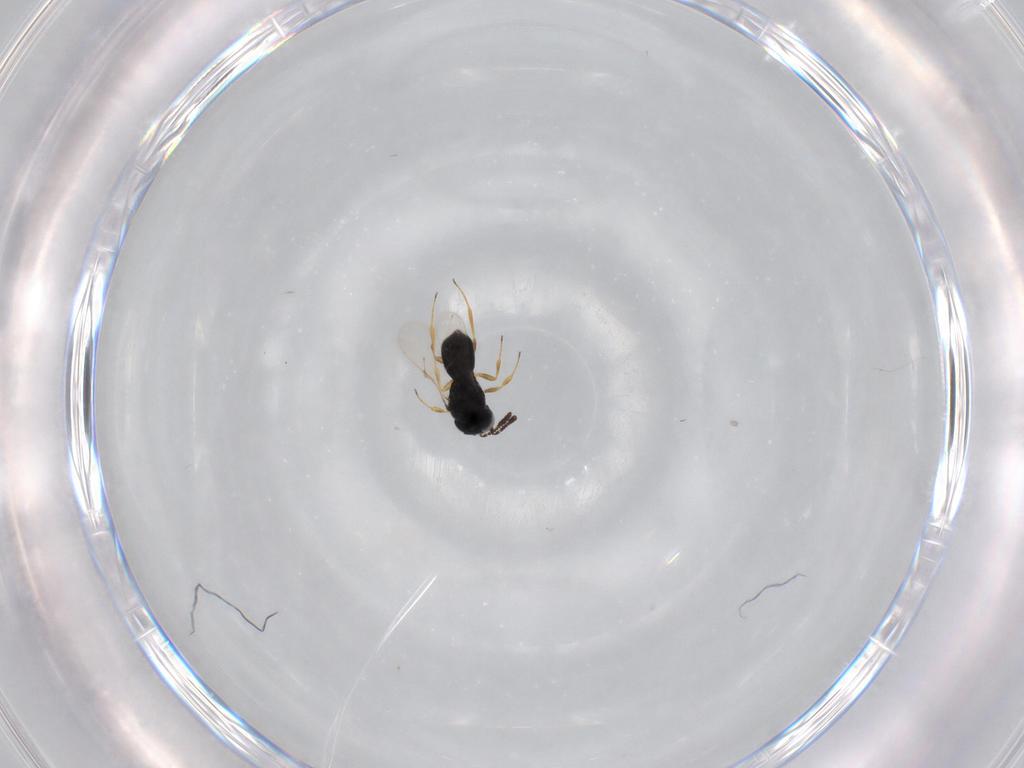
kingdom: Animalia
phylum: Arthropoda
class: Insecta
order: Hymenoptera
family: Scelionidae
